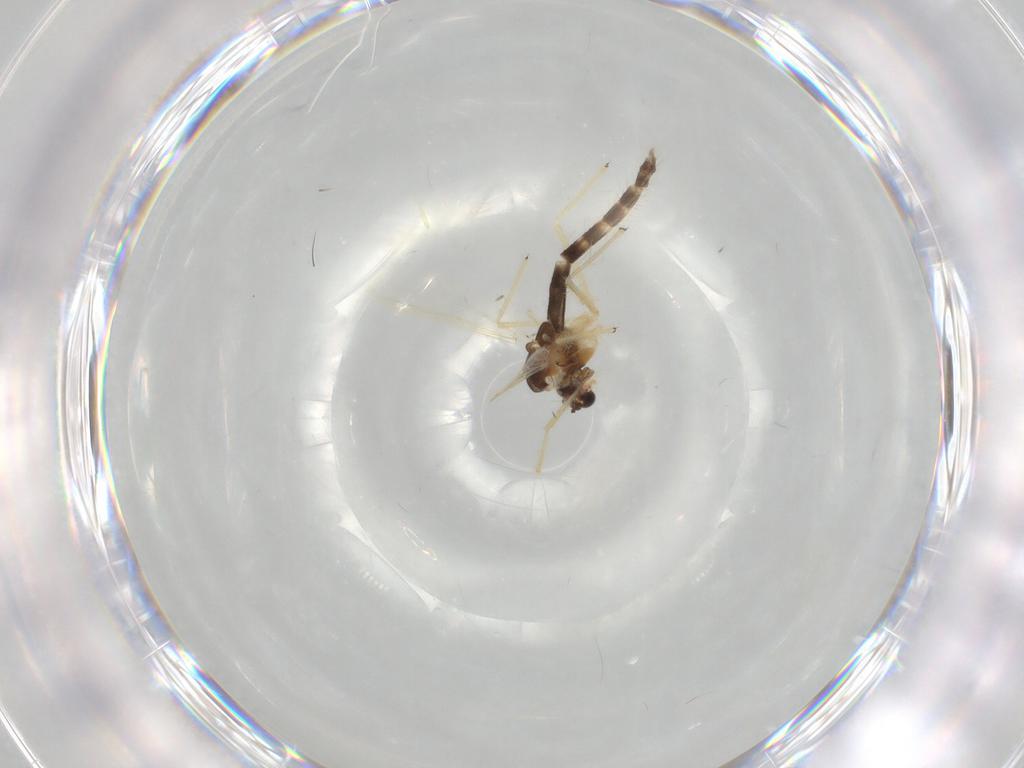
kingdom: Animalia
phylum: Arthropoda
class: Insecta
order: Diptera
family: Chironomidae
